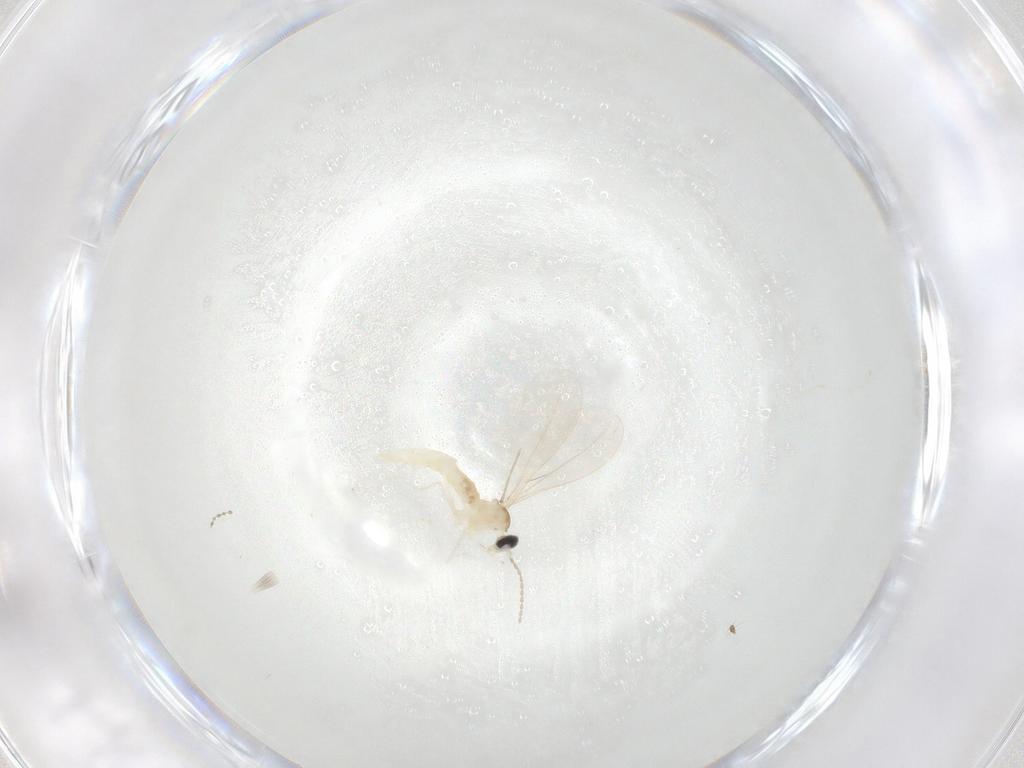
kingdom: Animalia
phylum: Arthropoda
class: Insecta
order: Diptera
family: Cecidomyiidae
